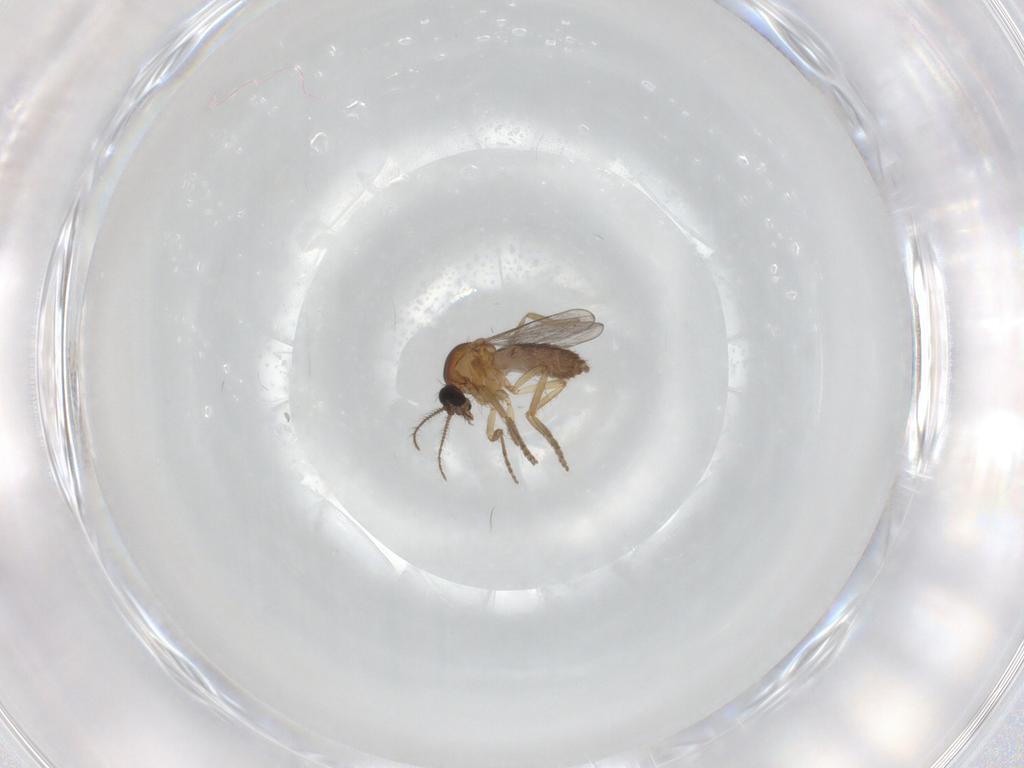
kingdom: Animalia
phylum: Arthropoda
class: Insecta
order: Diptera
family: Ceratopogonidae
